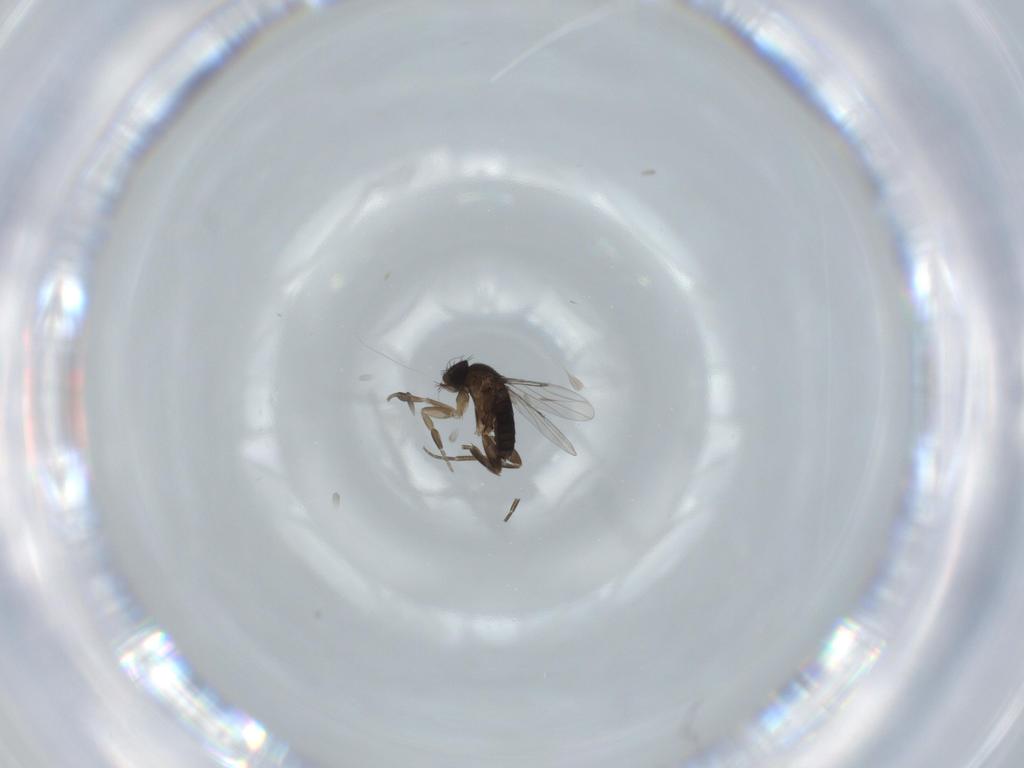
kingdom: Animalia
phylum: Arthropoda
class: Insecta
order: Diptera
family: Phoridae
